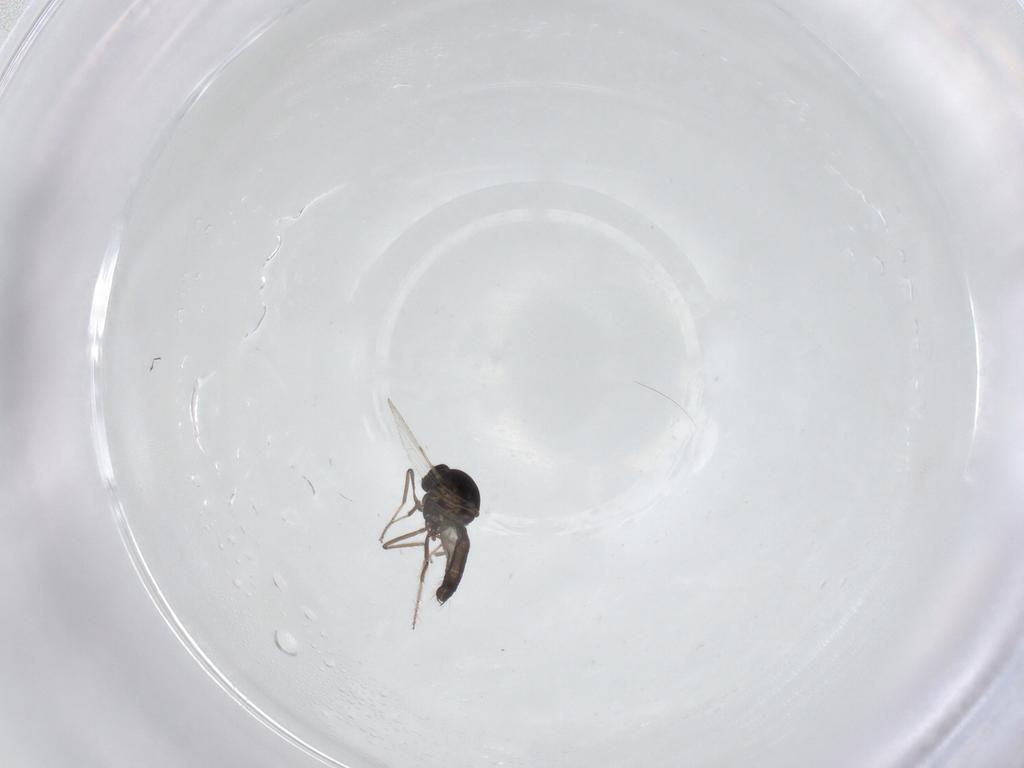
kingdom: Animalia
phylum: Arthropoda
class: Insecta
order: Diptera
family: Ceratopogonidae
